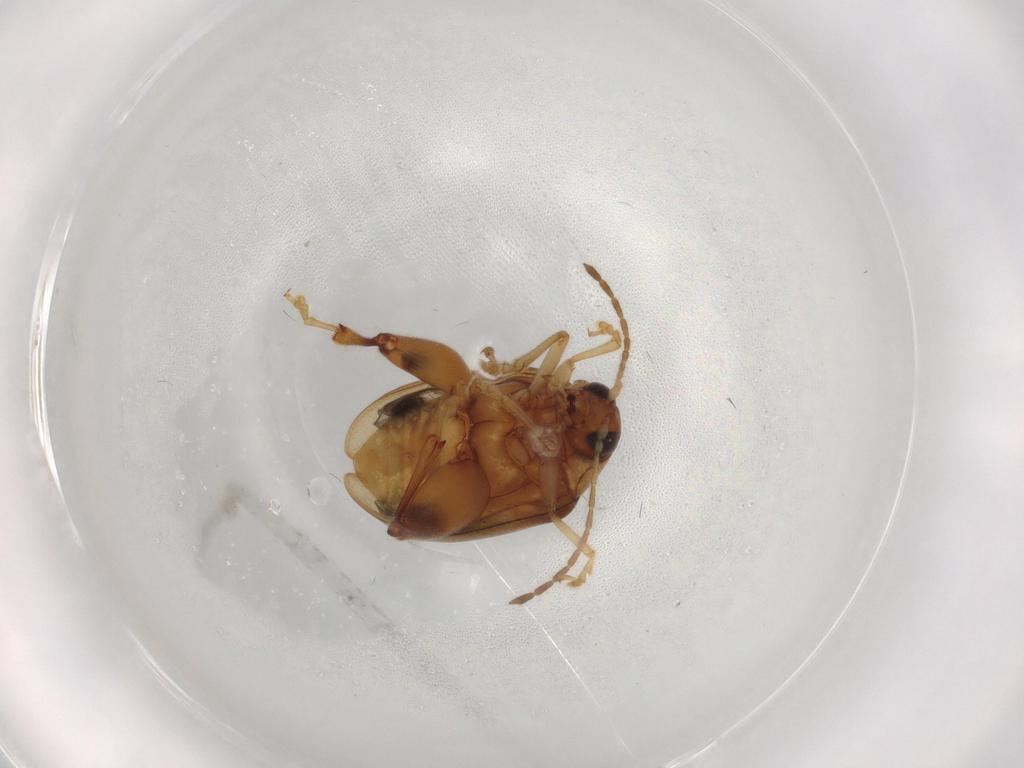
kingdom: Animalia
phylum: Arthropoda
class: Insecta
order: Coleoptera
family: Chrysomelidae
